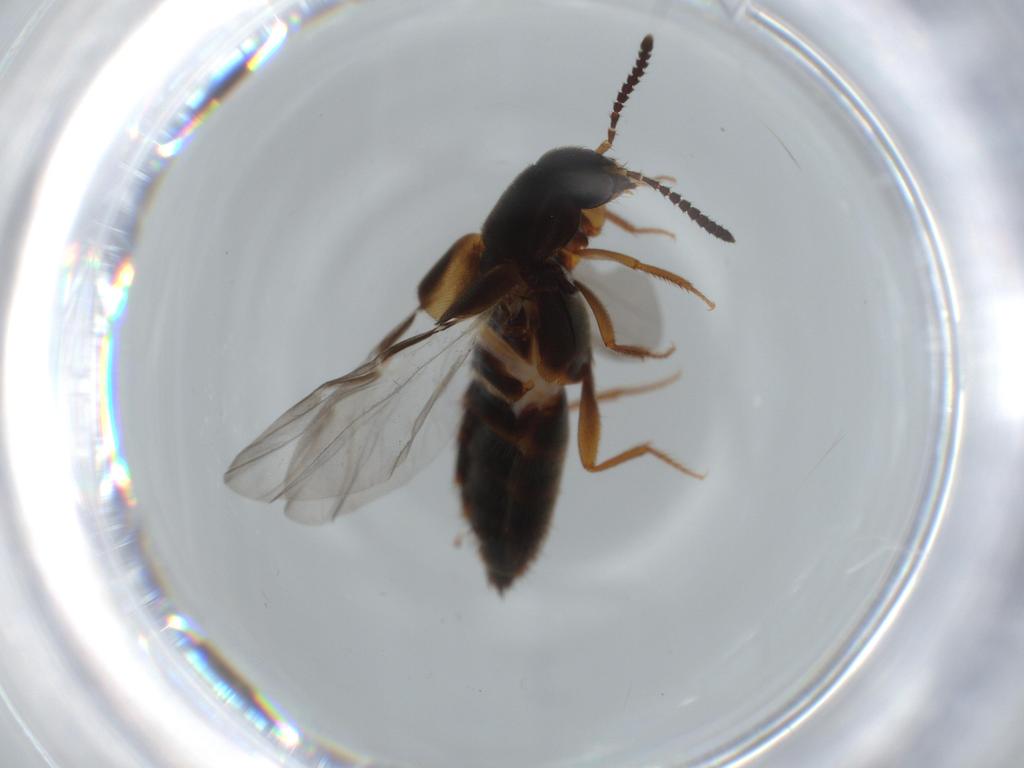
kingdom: Animalia
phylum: Arthropoda
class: Insecta
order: Coleoptera
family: Staphylinidae
